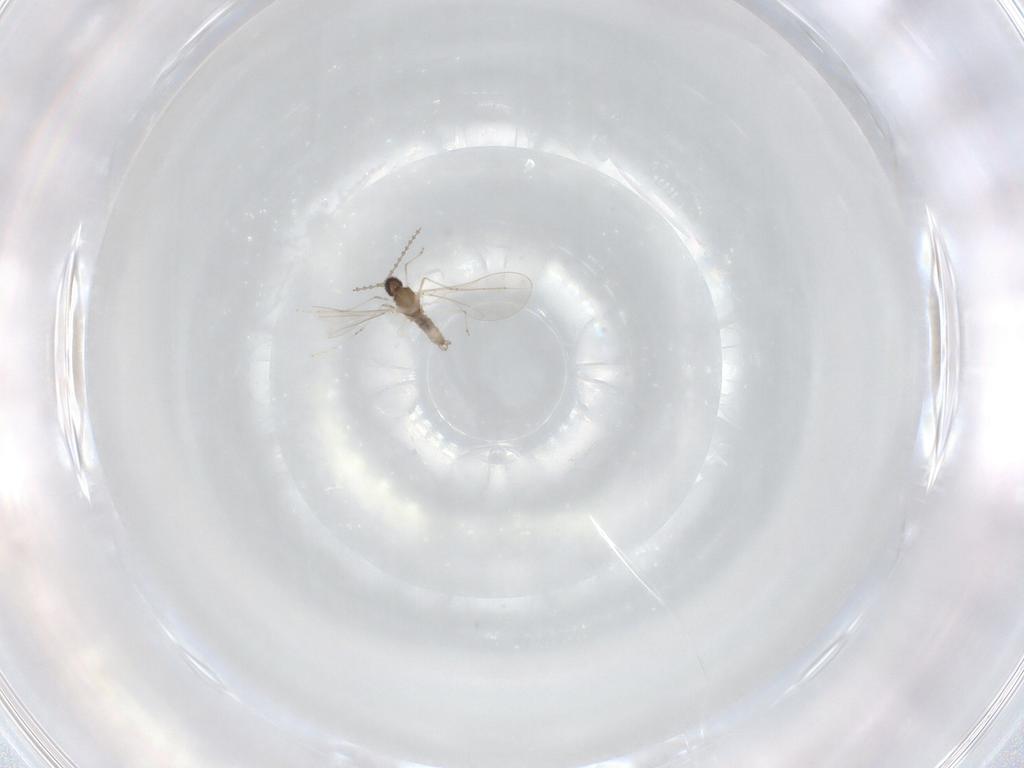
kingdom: Animalia
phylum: Arthropoda
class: Insecta
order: Diptera
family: Cecidomyiidae
